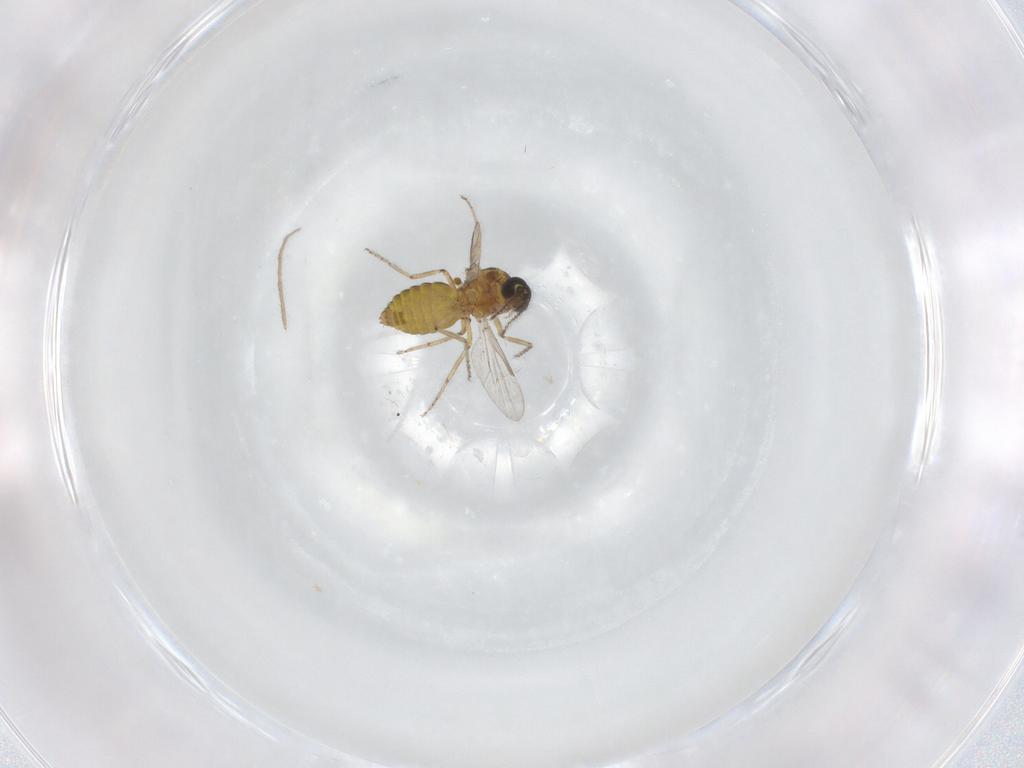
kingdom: Animalia
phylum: Arthropoda
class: Insecta
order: Diptera
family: Ceratopogonidae
